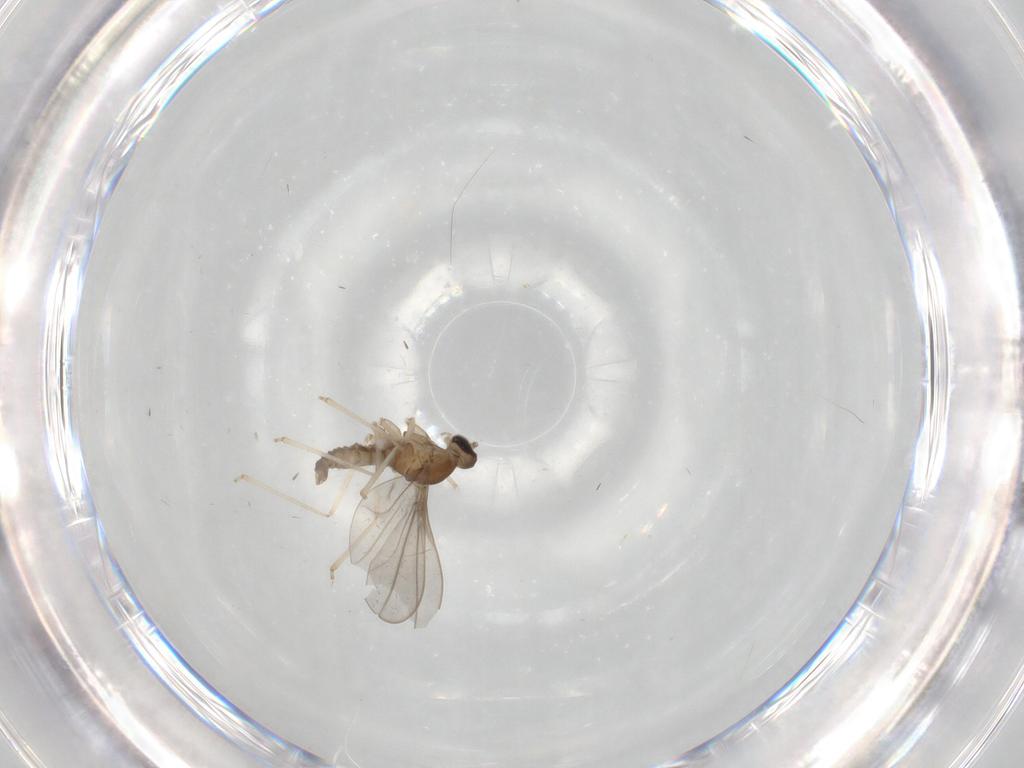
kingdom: Animalia
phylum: Arthropoda
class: Insecta
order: Diptera
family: Cecidomyiidae
